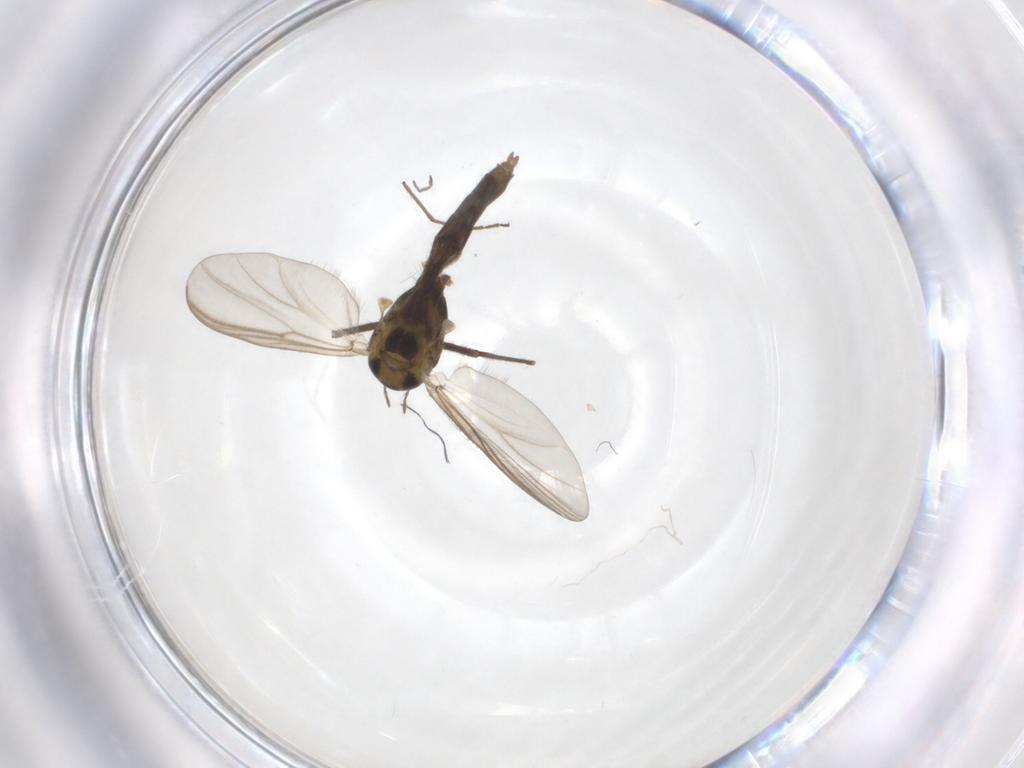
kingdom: Animalia
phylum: Arthropoda
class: Insecta
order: Diptera
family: Chironomidae
